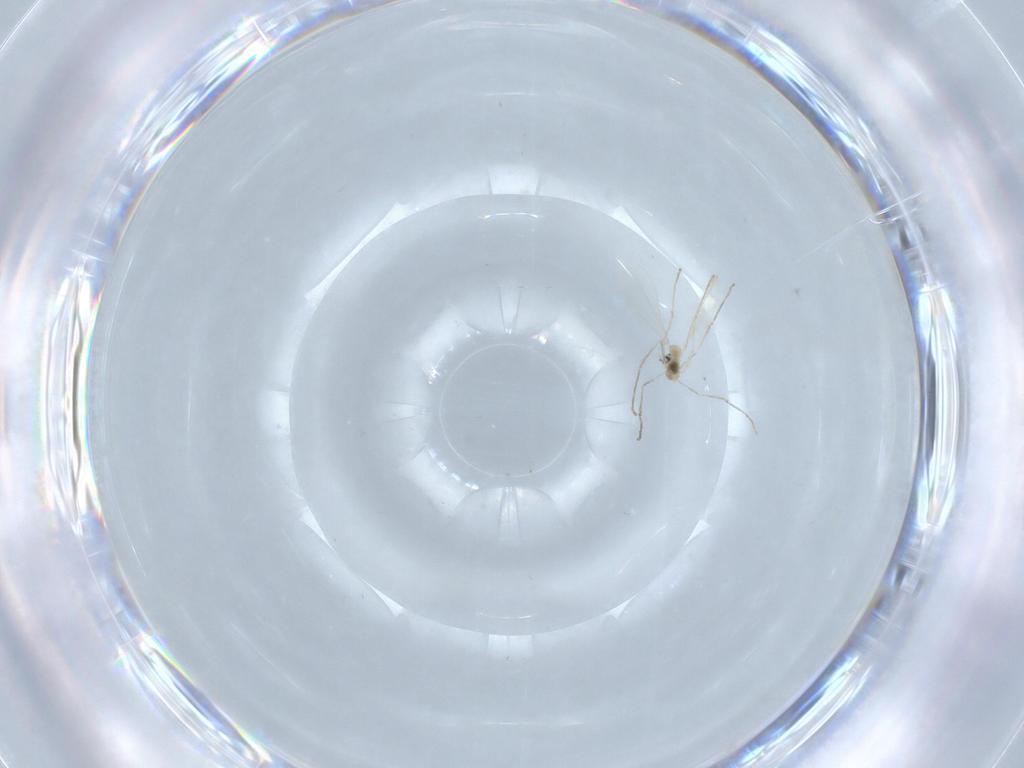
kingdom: Animalia
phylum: Arthropoda
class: Insecta
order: Diptera
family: Cecidomyiidae
